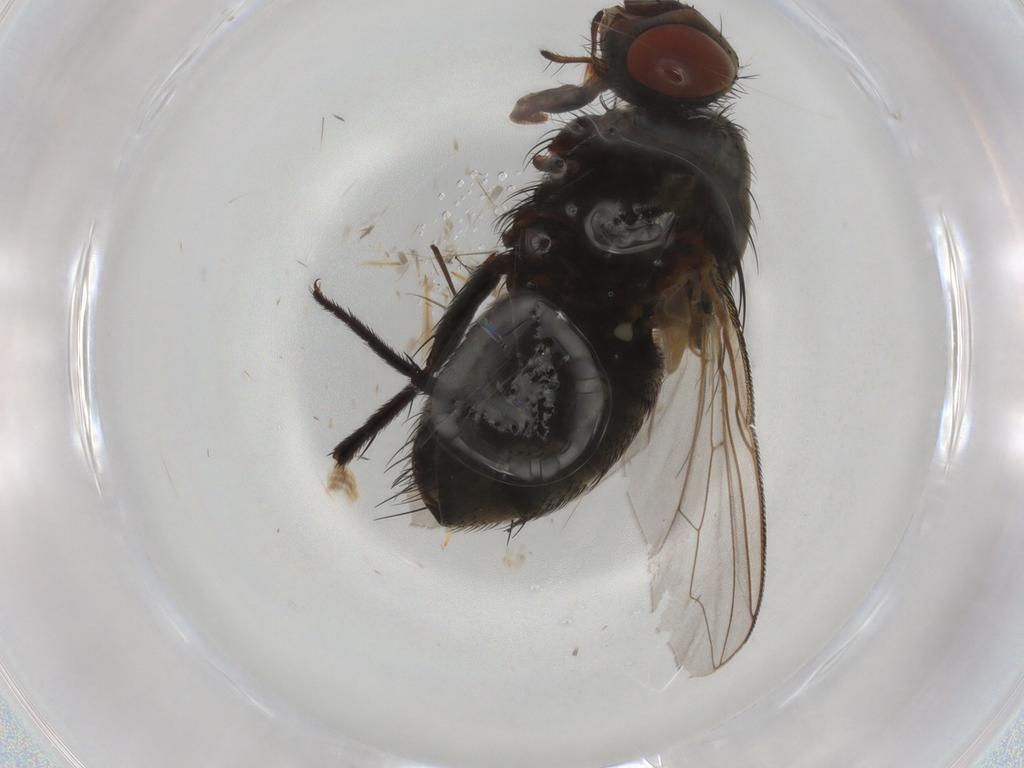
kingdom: Animalia
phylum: Arthropoda
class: Insecta
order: Diptera
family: Sarcophagidae
